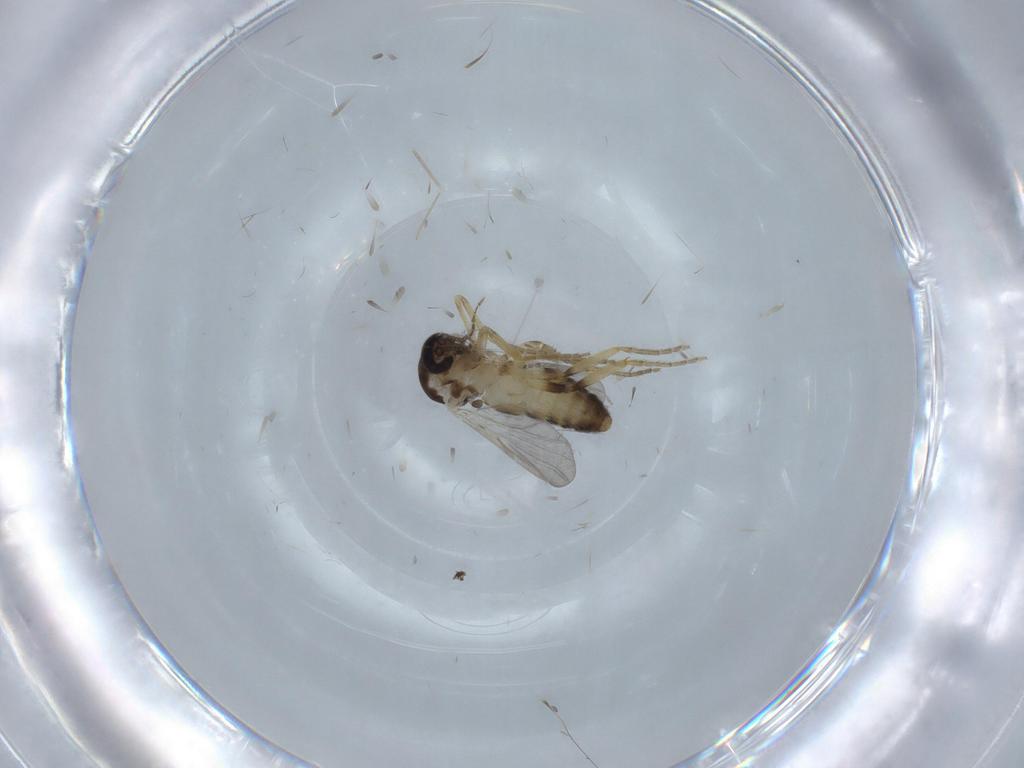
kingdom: Animalia
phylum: Arthropoda
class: Insecta
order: Diptera
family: Ceratopogonidae
